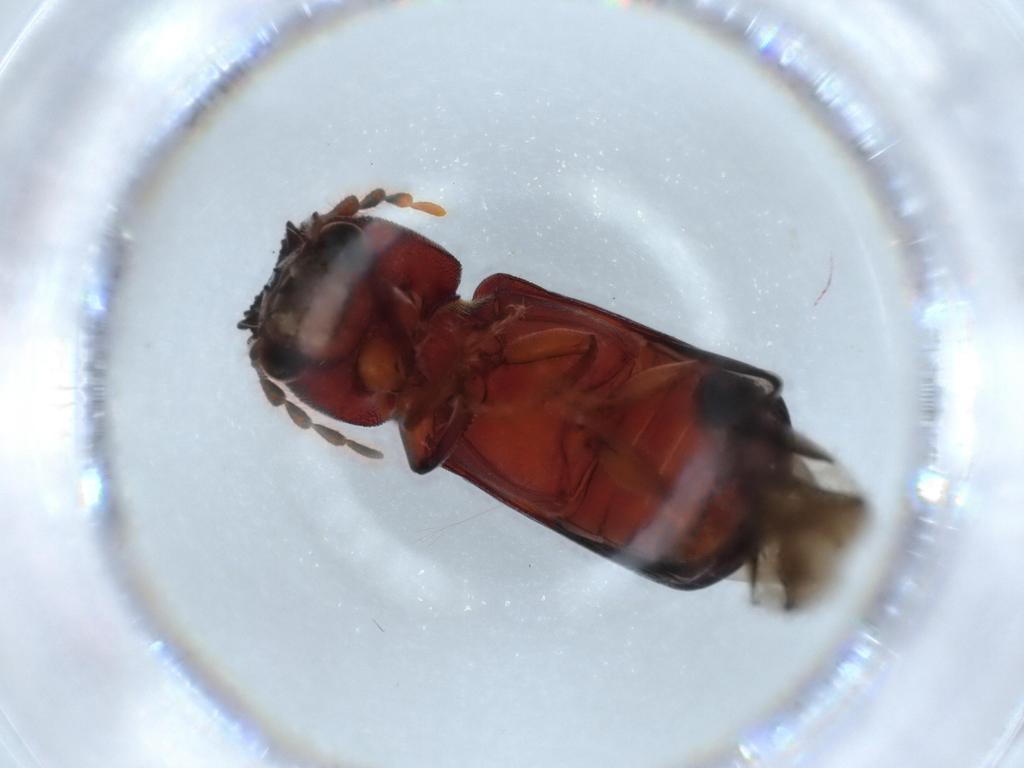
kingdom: Animalia
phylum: Arthropoda
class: Insecta
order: Coleoptera
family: Bostrichidae
